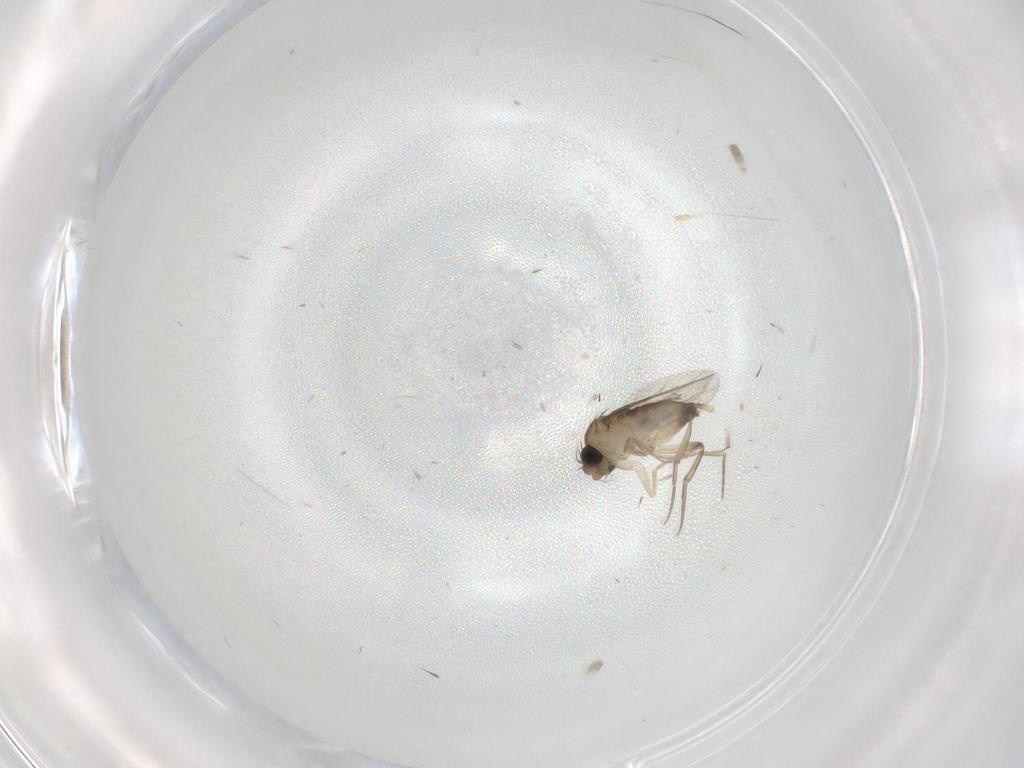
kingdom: Animalia
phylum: Arthropoda
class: Insecta
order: Diptera
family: Phoridae
